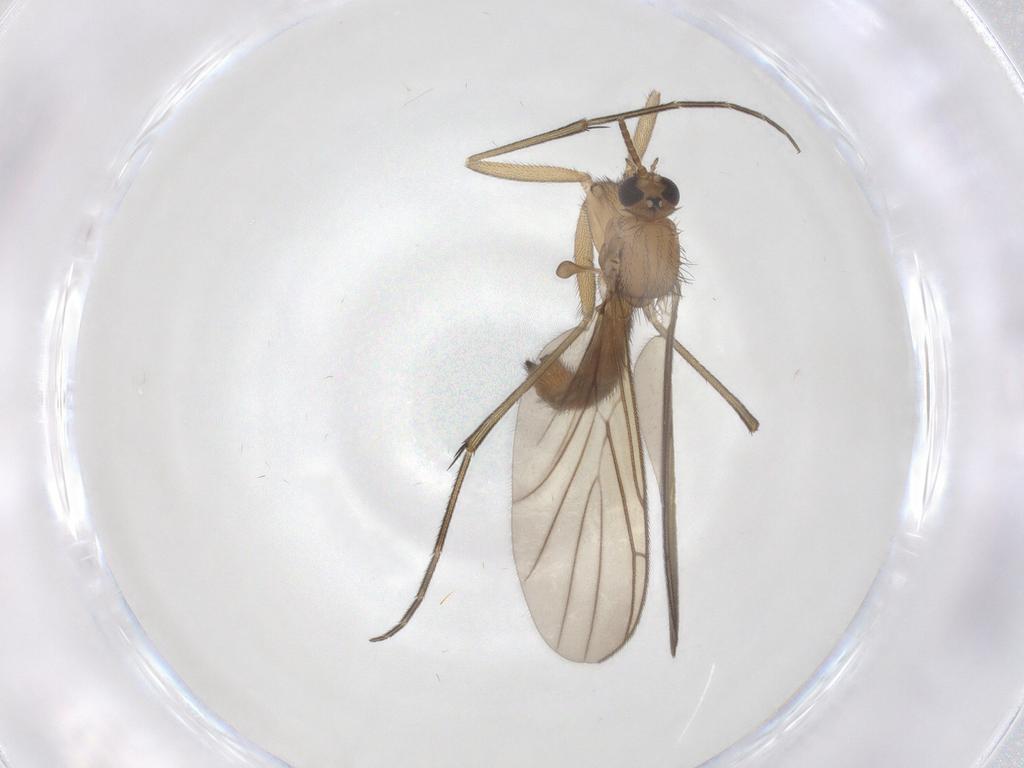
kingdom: Animalia
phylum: Arthropoda
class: Insecta
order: Diptera
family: Keroplatidae
